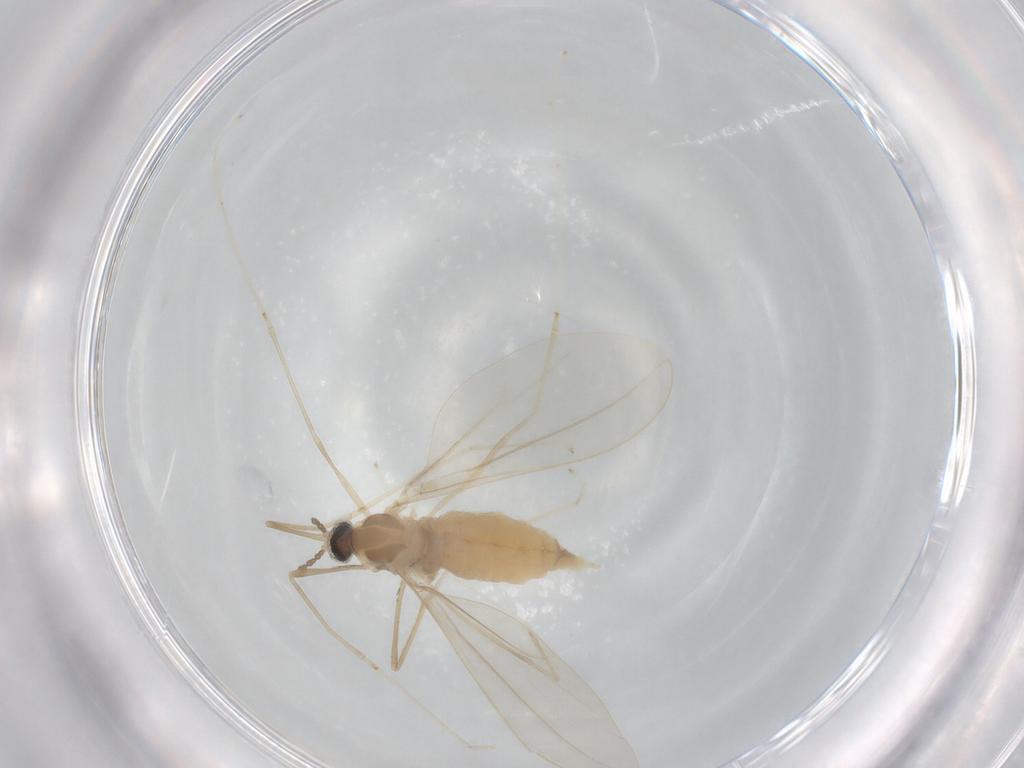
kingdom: Animalia
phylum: Arthropoda
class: Insecta
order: Diptera
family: Cecidomyiidae
